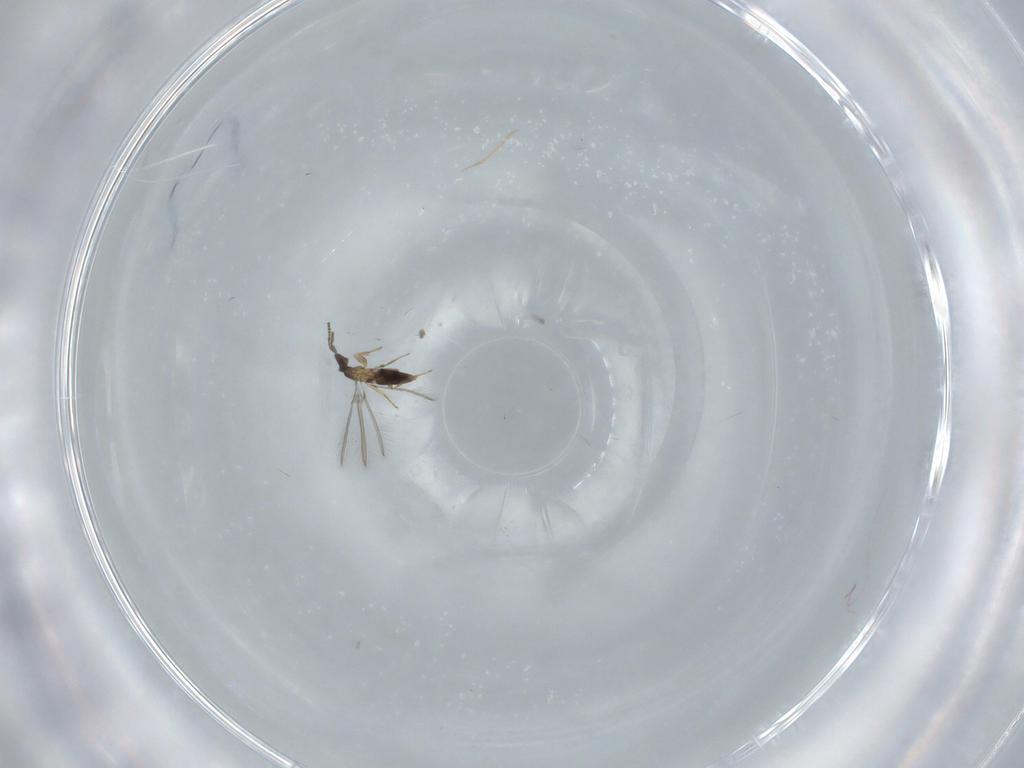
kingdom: Animalia
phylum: Arthropoda
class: Insecta
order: Hymenoptera
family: Mymaridae
